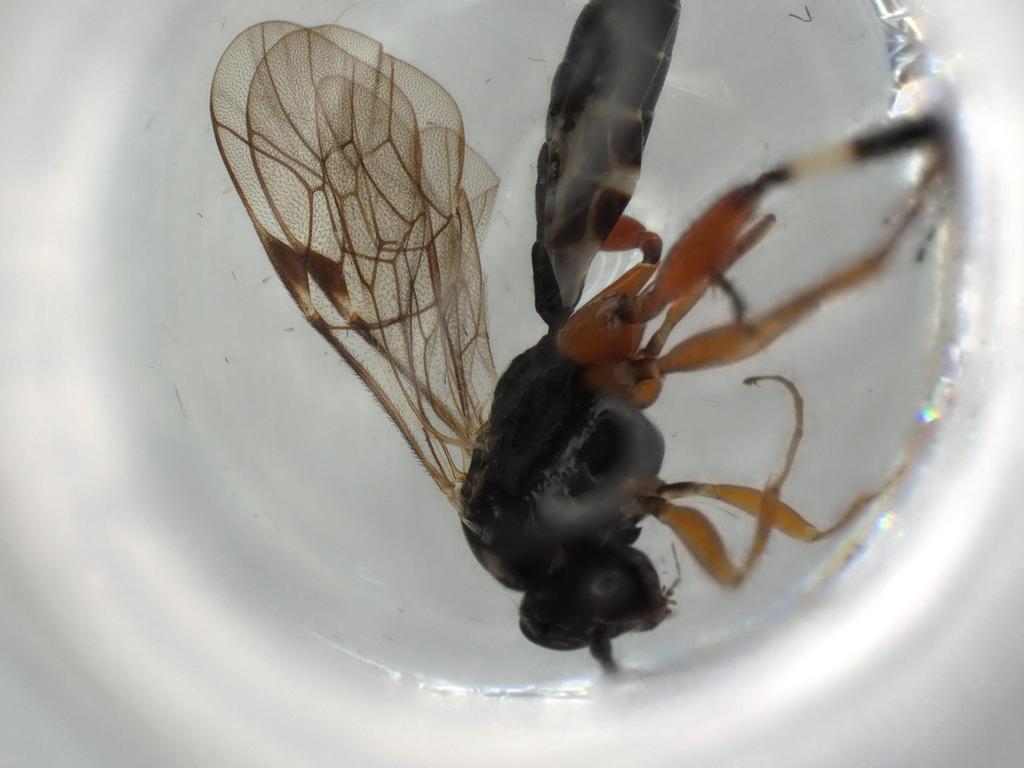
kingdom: Animalia
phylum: Arthropoda
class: Insecta
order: Hymenoptera
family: Ichneumonidae
